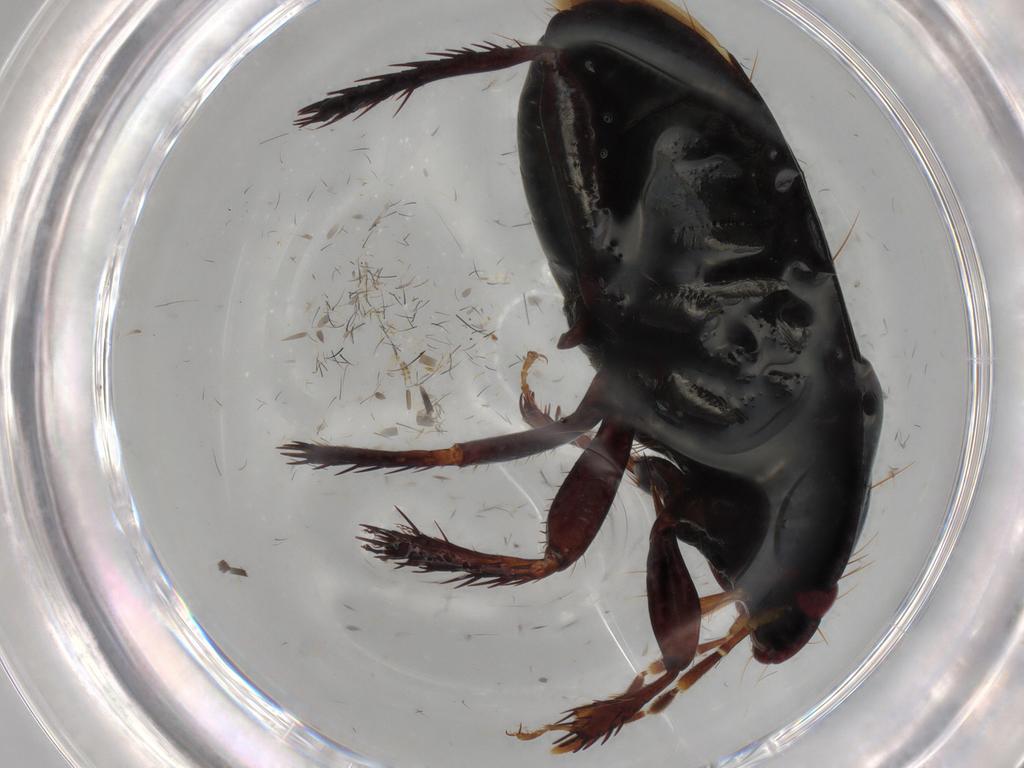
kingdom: Animalia
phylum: Arthropoda
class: Insecta
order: Hemiptera
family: Cydnidae
